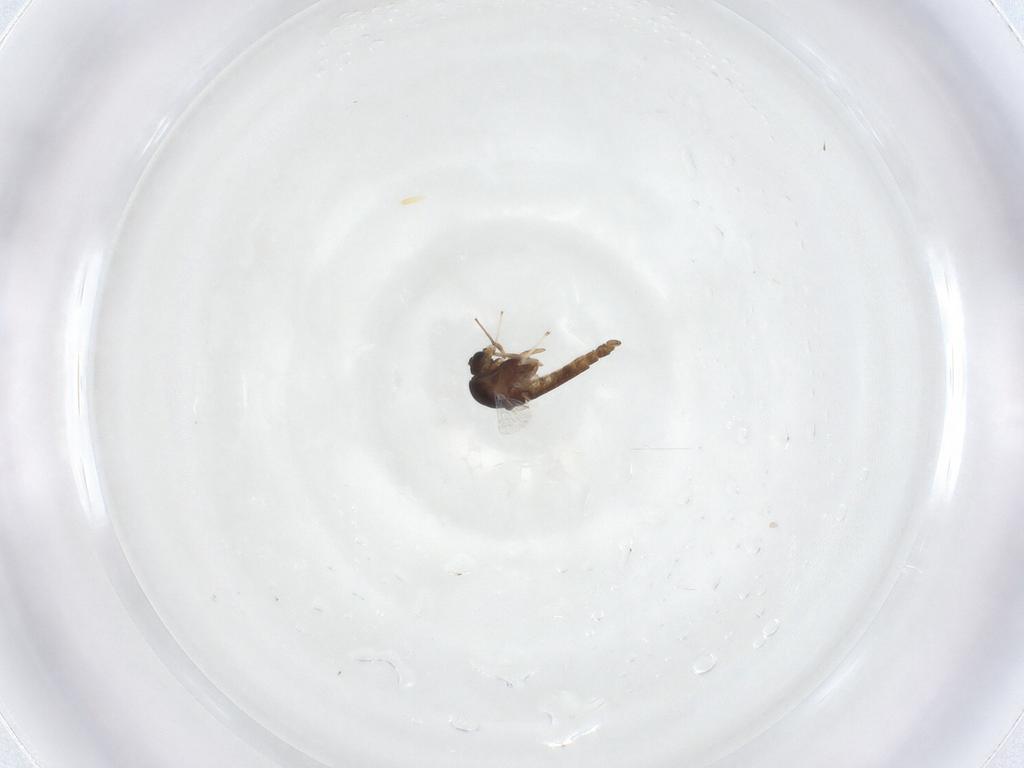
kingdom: Animalia
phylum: Arthropoda
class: Insecta
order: Diptera
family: Chironomidae
